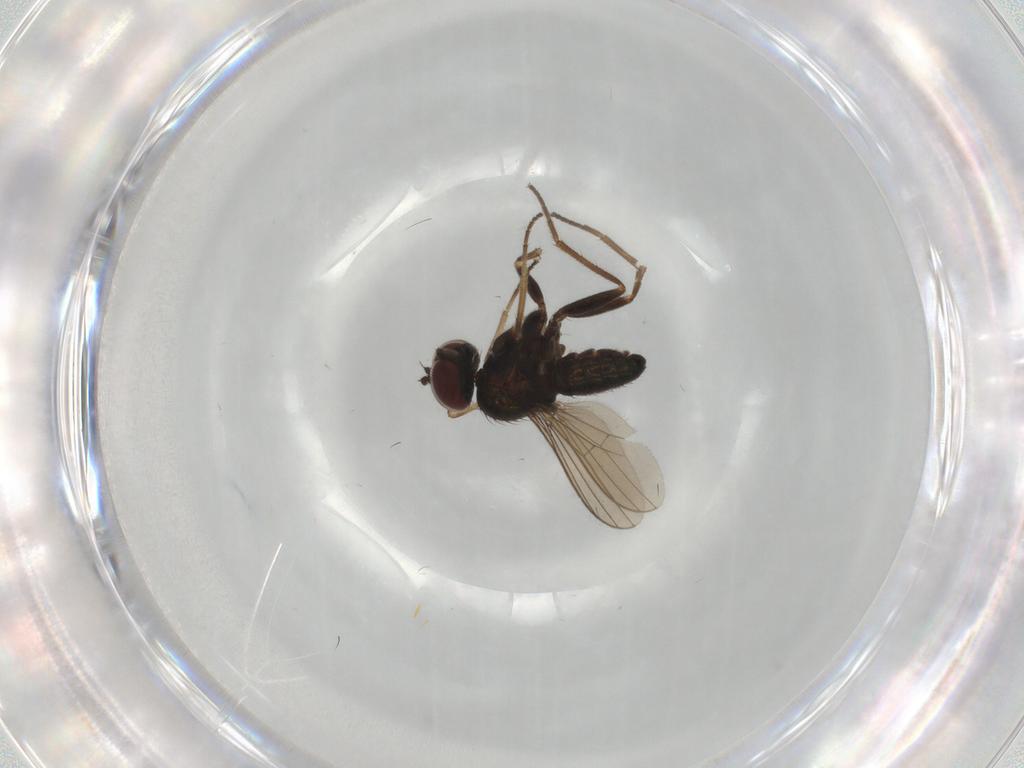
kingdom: Animalia
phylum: Arthropoda
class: Insecta
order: Diptera
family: Dolichopodidae
